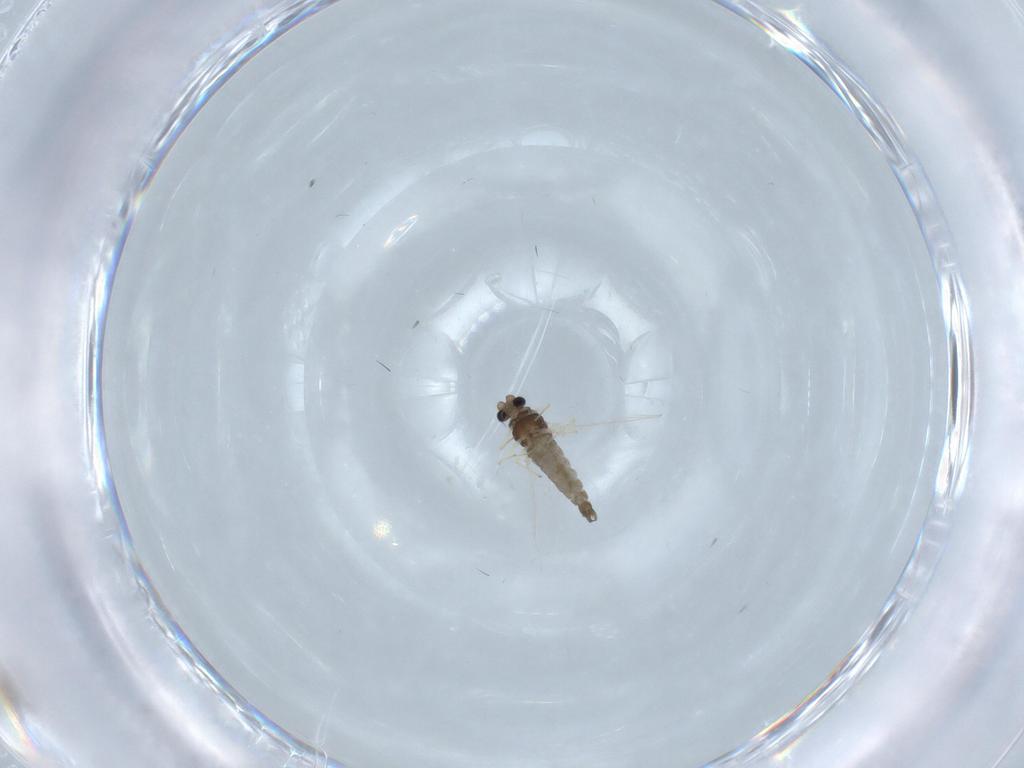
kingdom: Animalia
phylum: Arthropoda
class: Insecta
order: Diptera
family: Chironomidae
